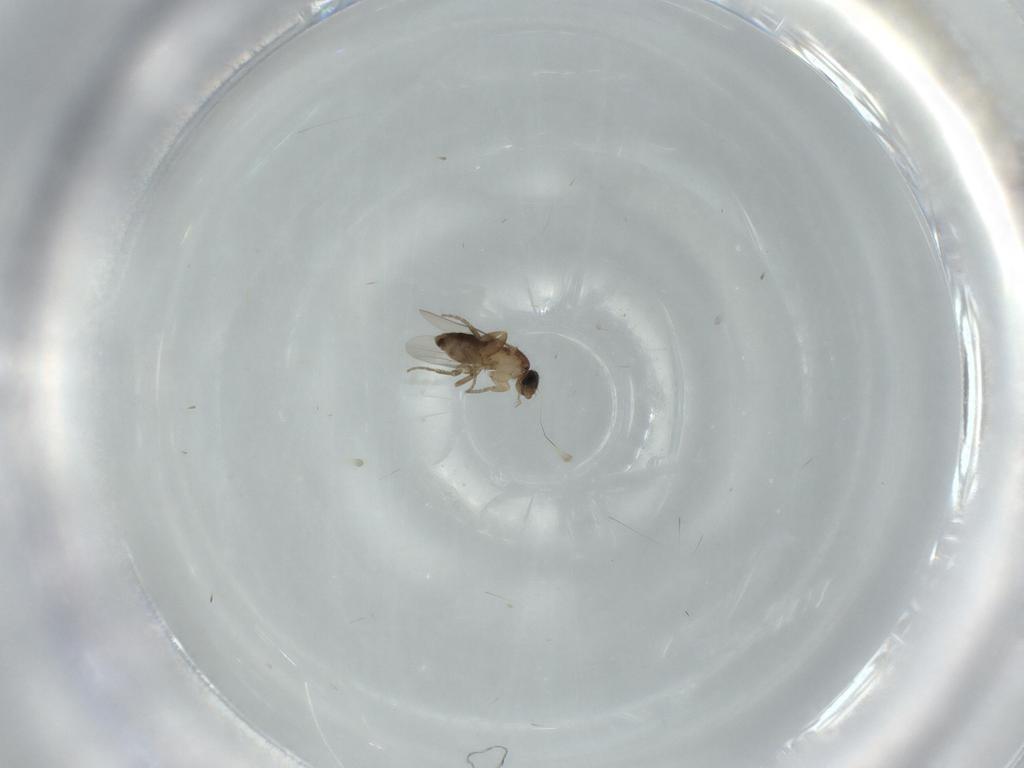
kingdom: Animalia
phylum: Arthropoda
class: Insecta
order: Diptera
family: Phoridae
